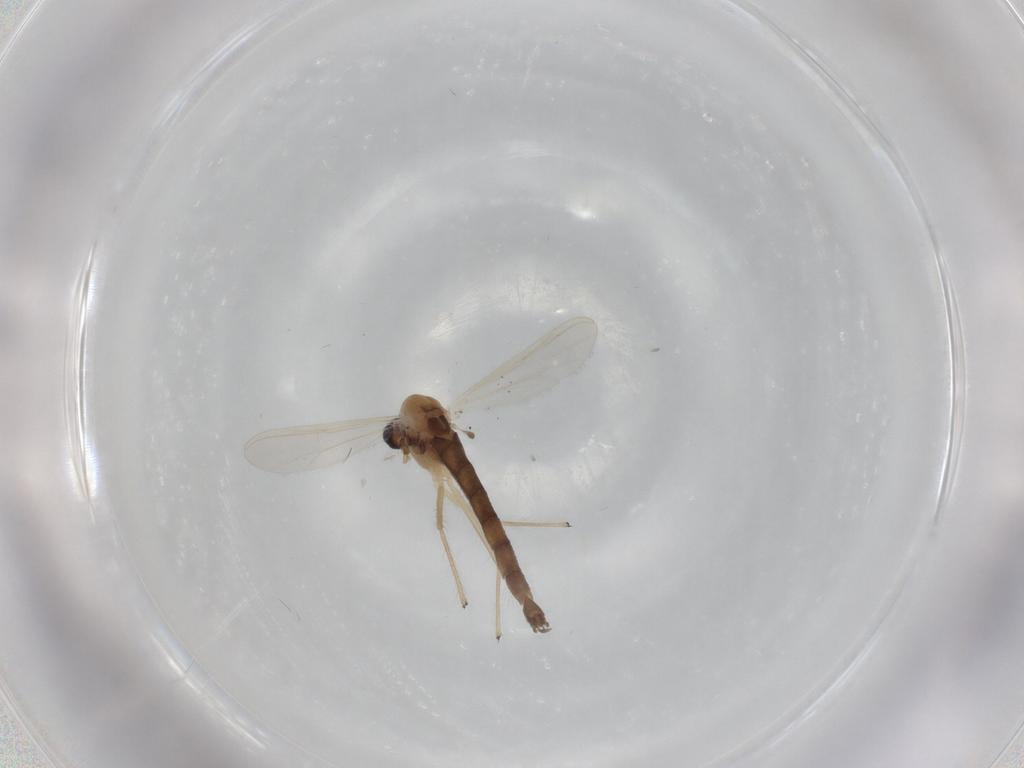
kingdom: Animalia
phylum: Arthropoda
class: Insecta
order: Diptera
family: Chironomidae
